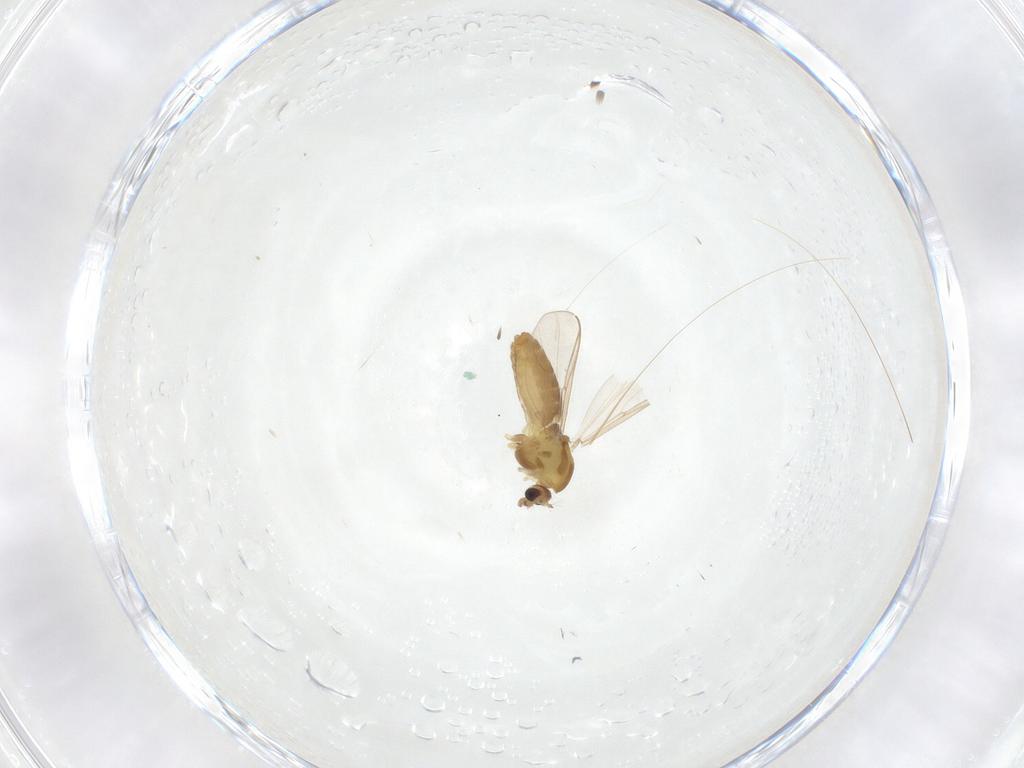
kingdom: Animalia
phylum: Arthropoda
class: Insecta
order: Diptera
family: Chironomidae
